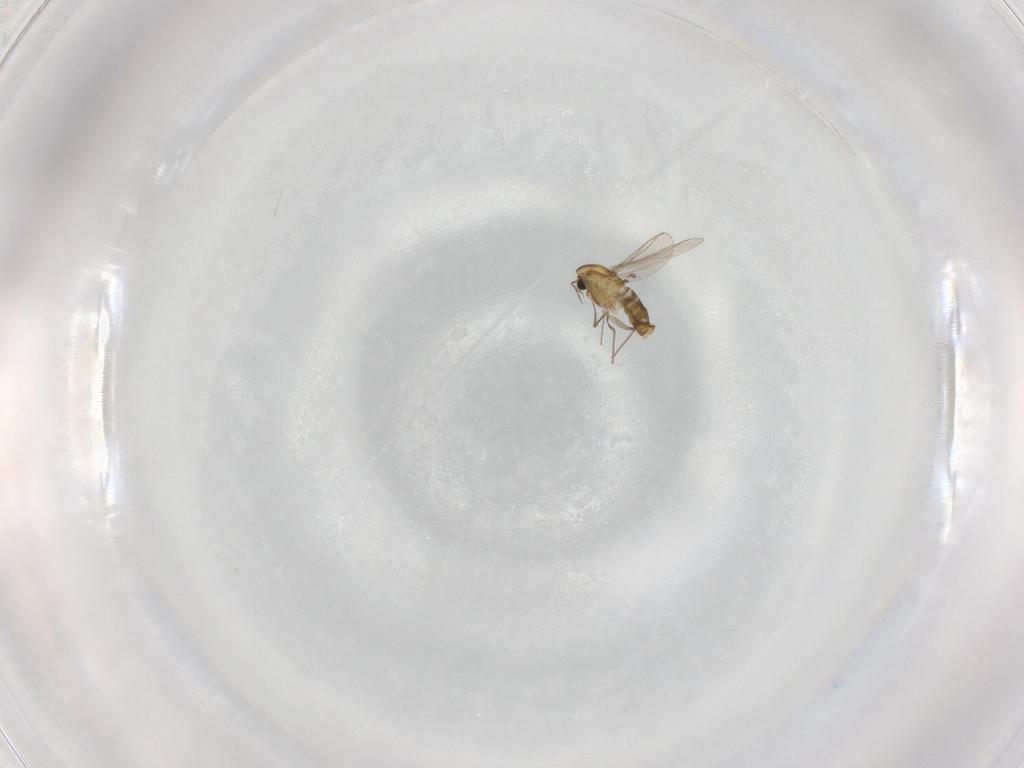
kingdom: Animalia
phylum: Arthropoda
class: Insecta
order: Diptera
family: Chironomidae
